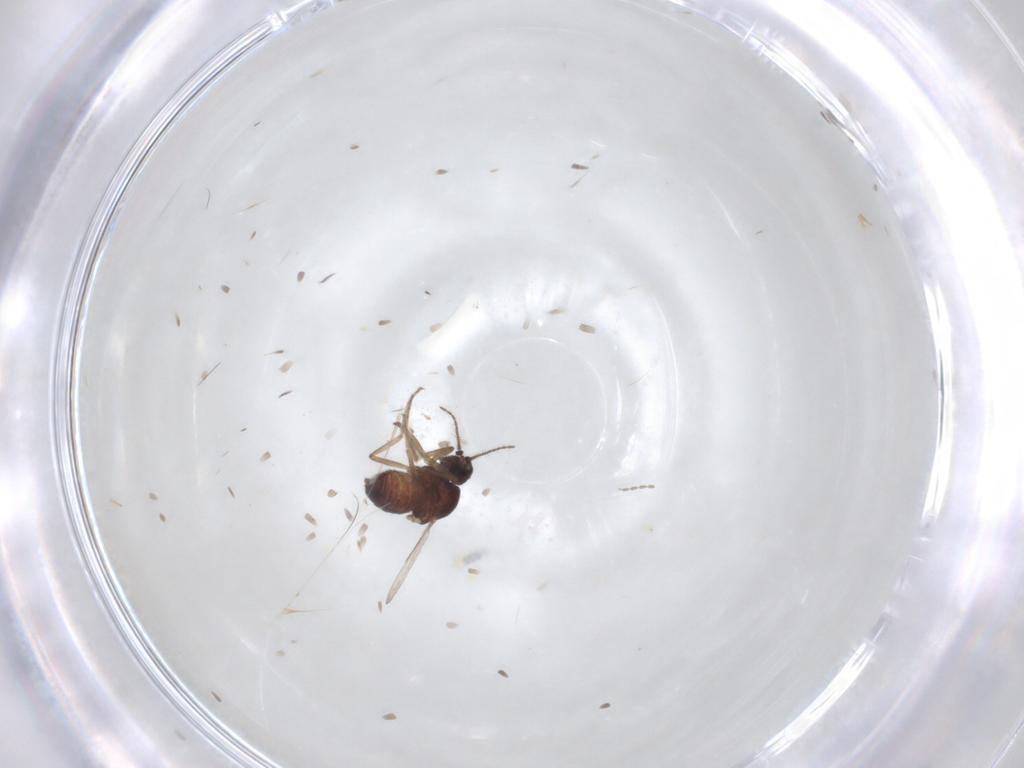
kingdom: Animalia
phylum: Arthropoda
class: Insecta
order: Diptera
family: Ceratopogonidae
